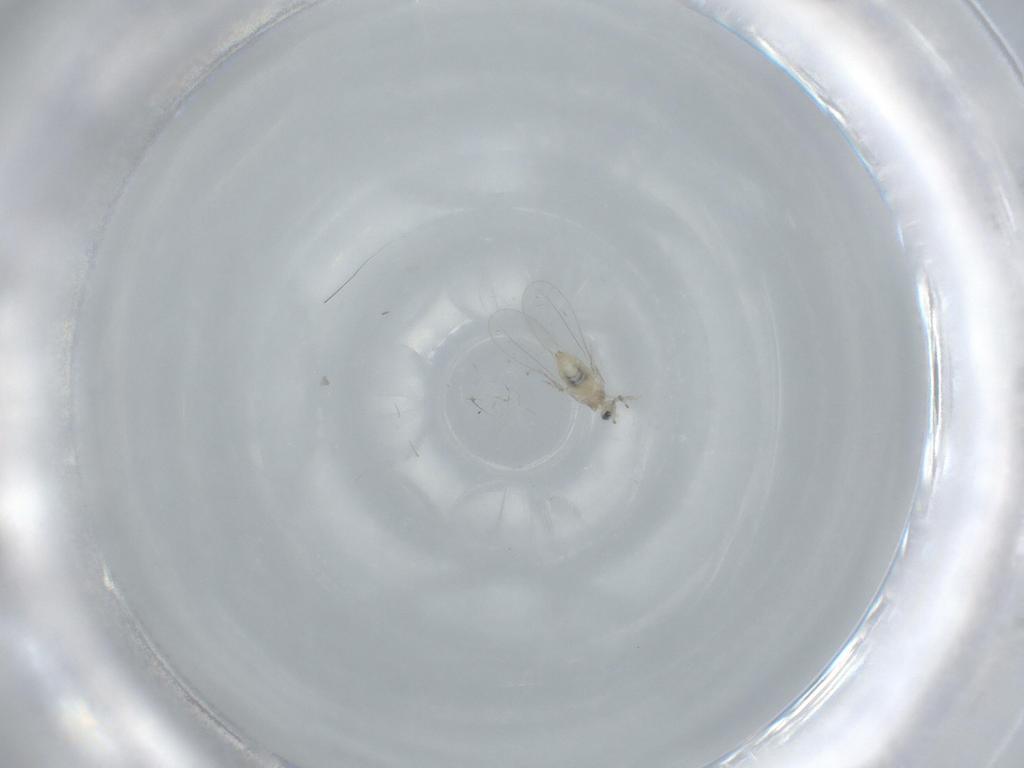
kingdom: Animalia
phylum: Arthropoda
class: Insecta
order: Diptera
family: Cecidomyiidae
